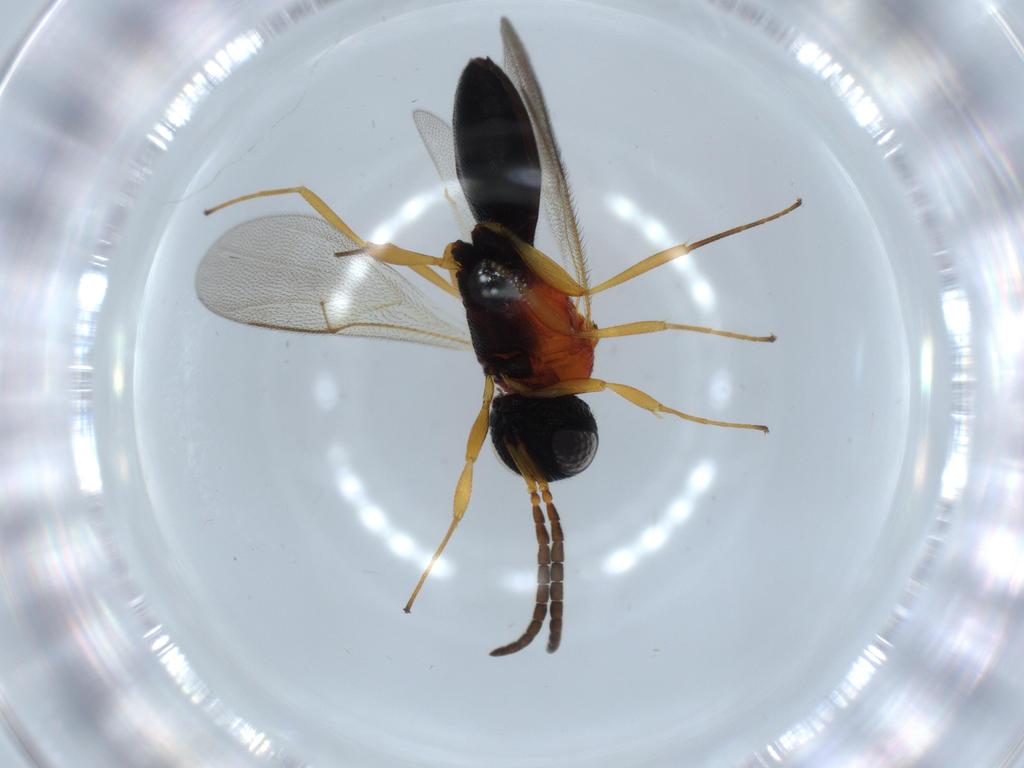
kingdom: Animalia
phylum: Arthropoda
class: Insecta
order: Hymenoptera
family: Scelionidae
